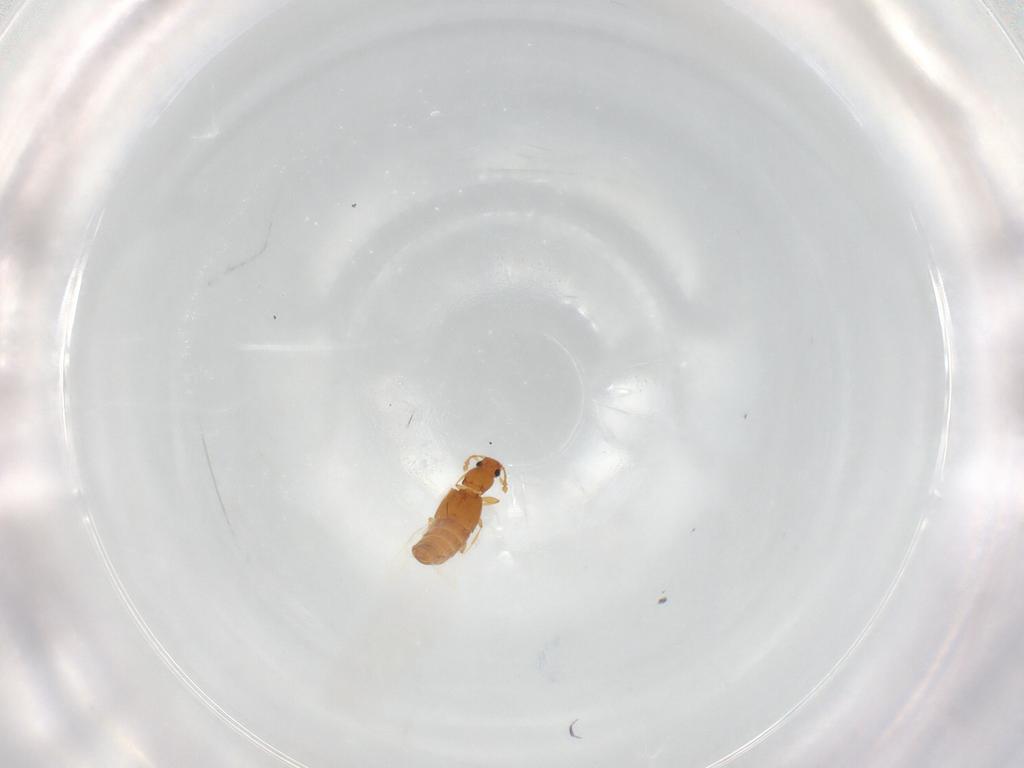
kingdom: Animalia
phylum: Arthropoda
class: Insecta
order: Coleoptera
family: Staphylinidae
